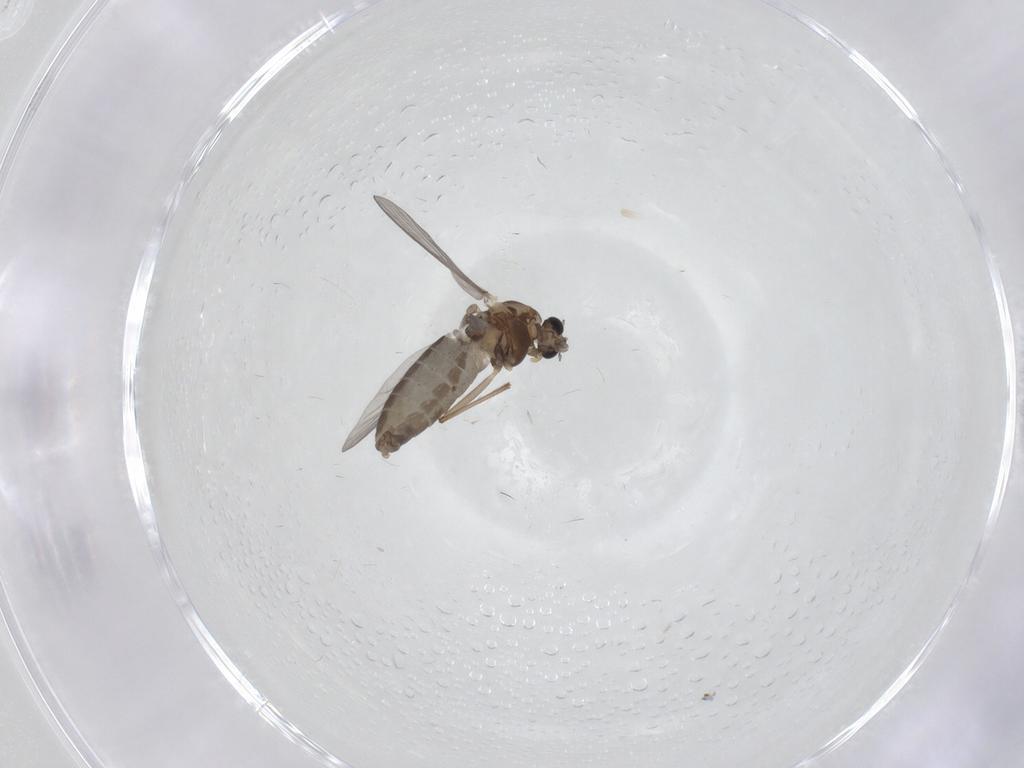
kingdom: Animalia
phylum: Arthropoda
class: Insecta
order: Diptera
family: Chironomidae
